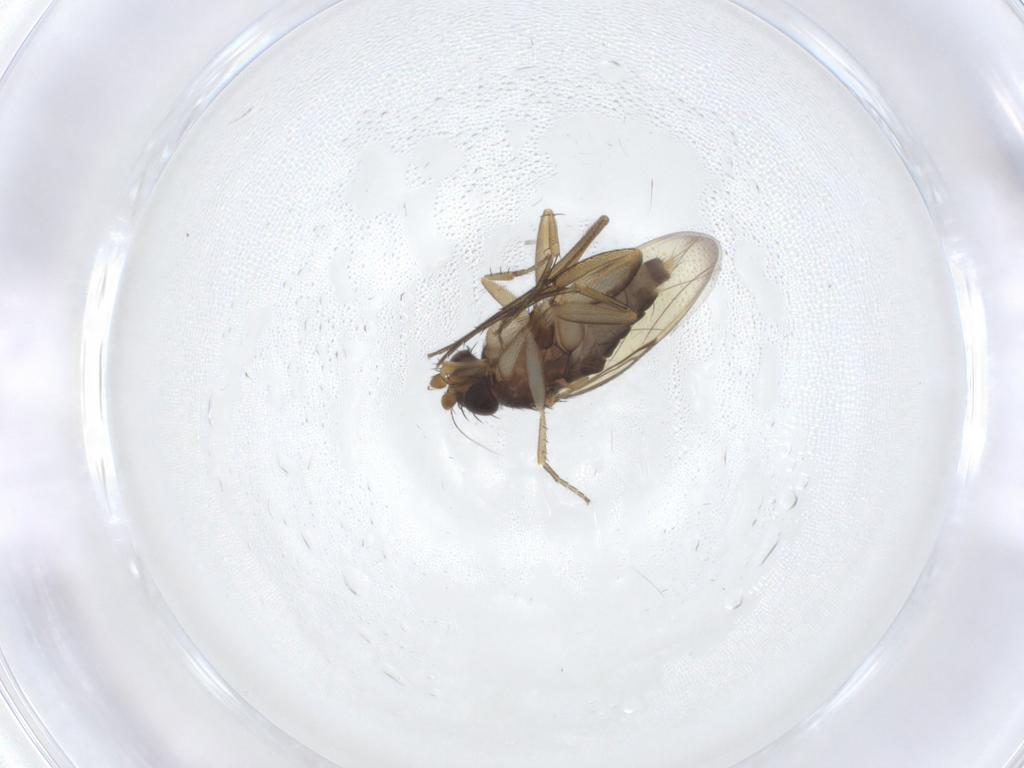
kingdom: Animalia
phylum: Arthropoda
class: Insecta
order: Diptera
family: Phoridae
